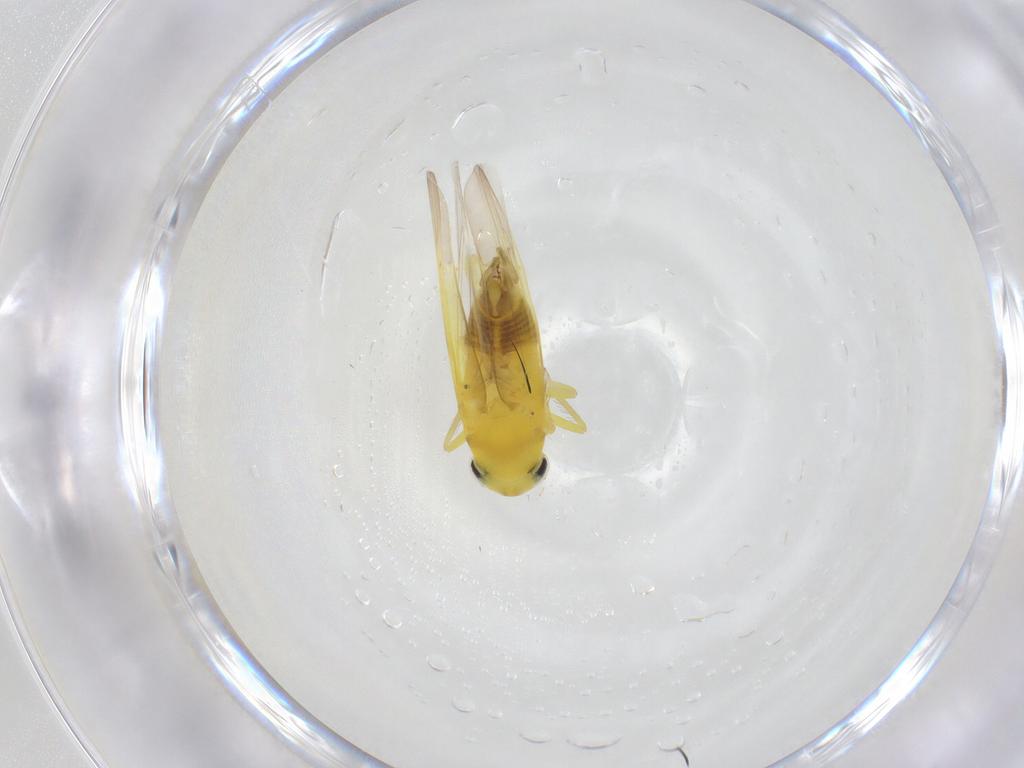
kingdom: Animalia
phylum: Arthropoda
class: Insecta
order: Hemiptera
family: Cicadellidae
